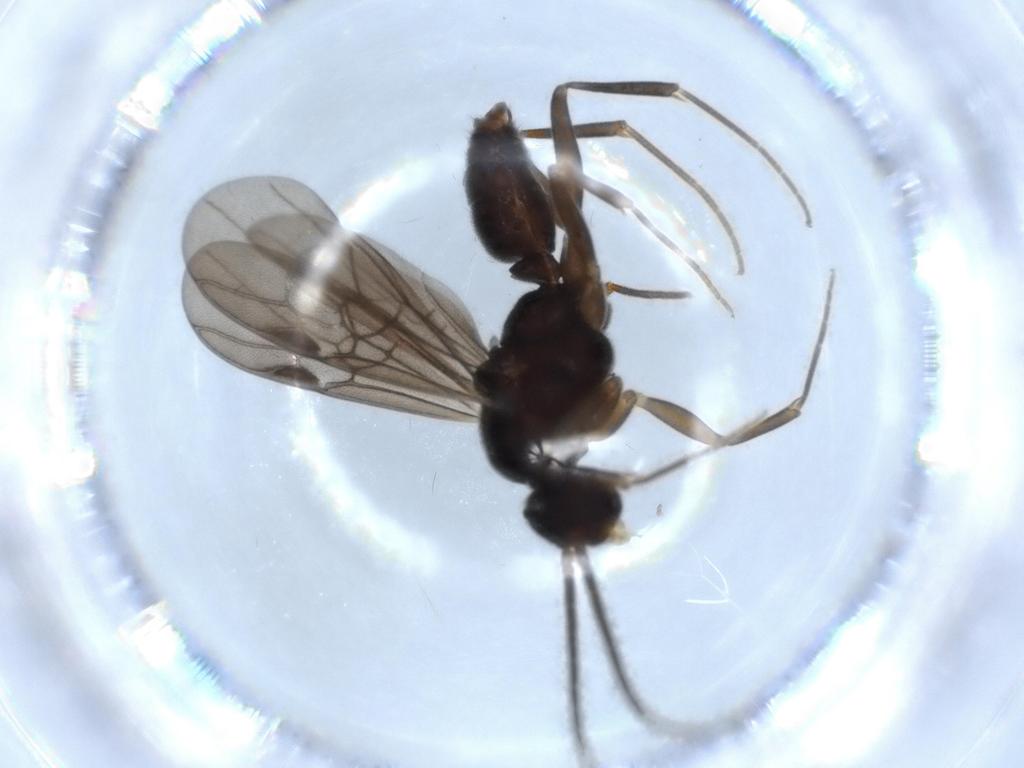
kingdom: Animalia
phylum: Arthropoda
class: Insecta
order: Hymenoptera
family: Formicidae
